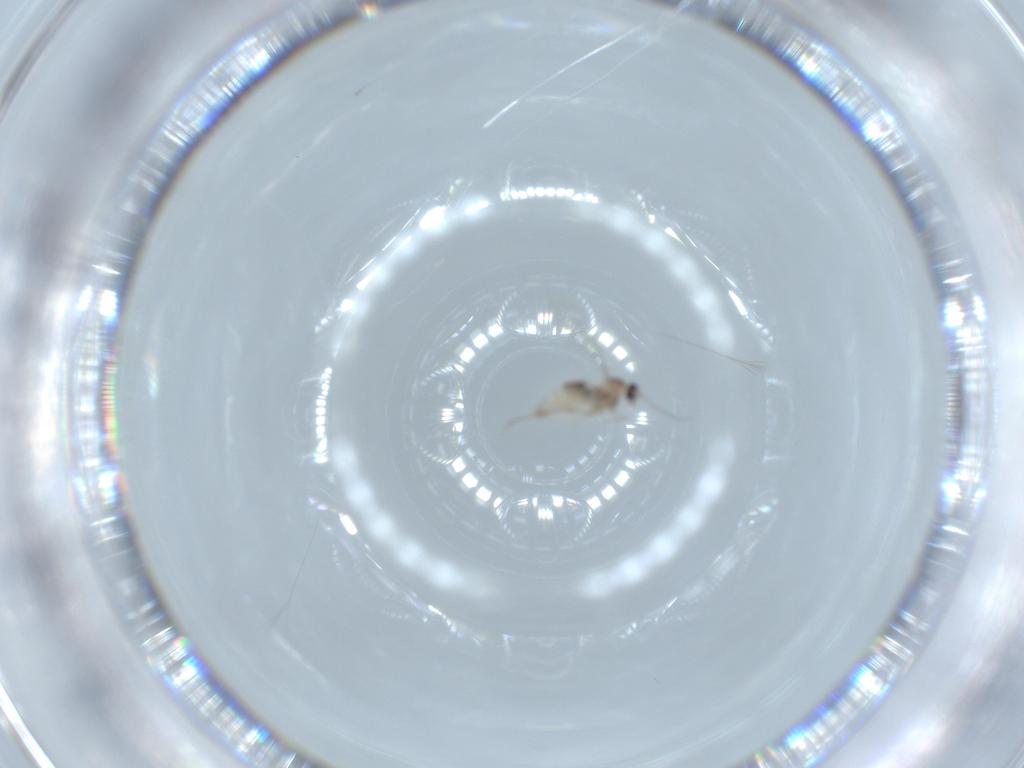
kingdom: Animalia
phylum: Arthropoda
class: Insecta
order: Diptera
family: Cecidomyiidae
